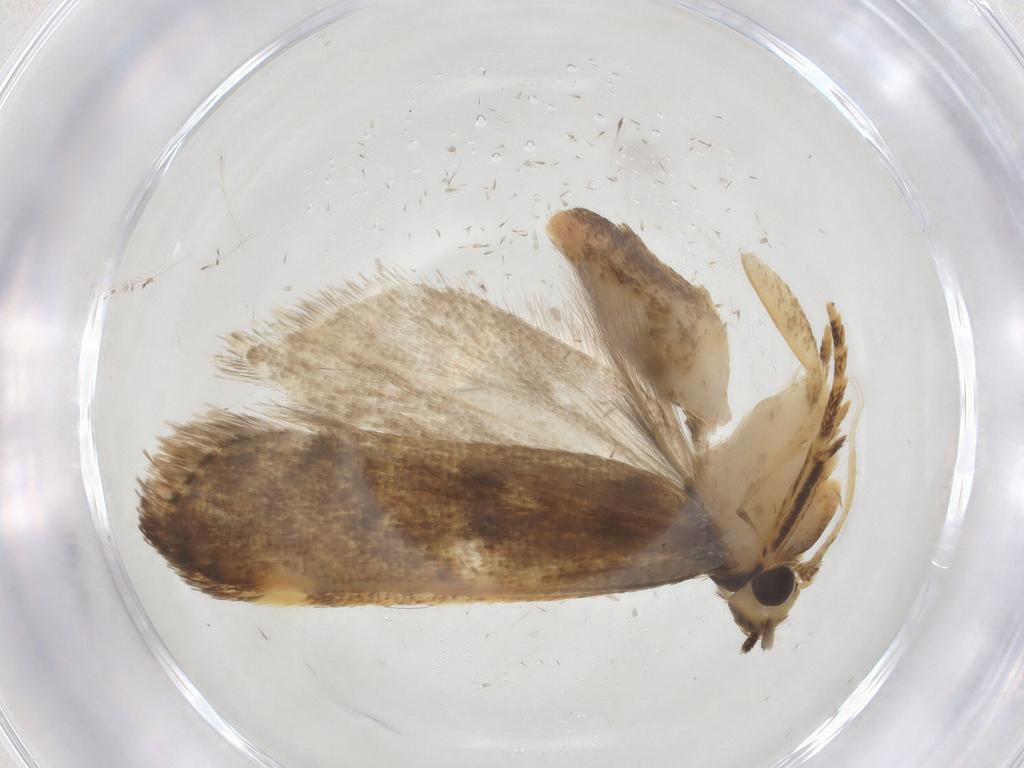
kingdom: Animalia
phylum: Arthropoda
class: Insecta
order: Lepidoptera
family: Gelechiidae
